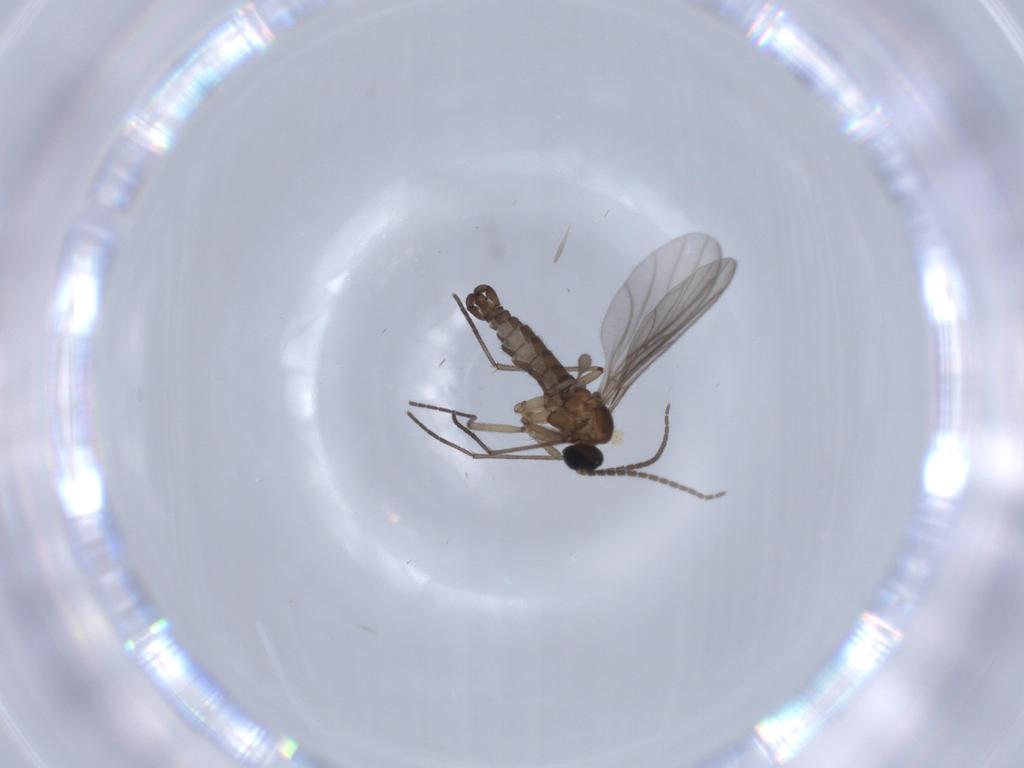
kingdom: Animalia
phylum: Arthropoda
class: Insecta
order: Diptera
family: Sciaridae
